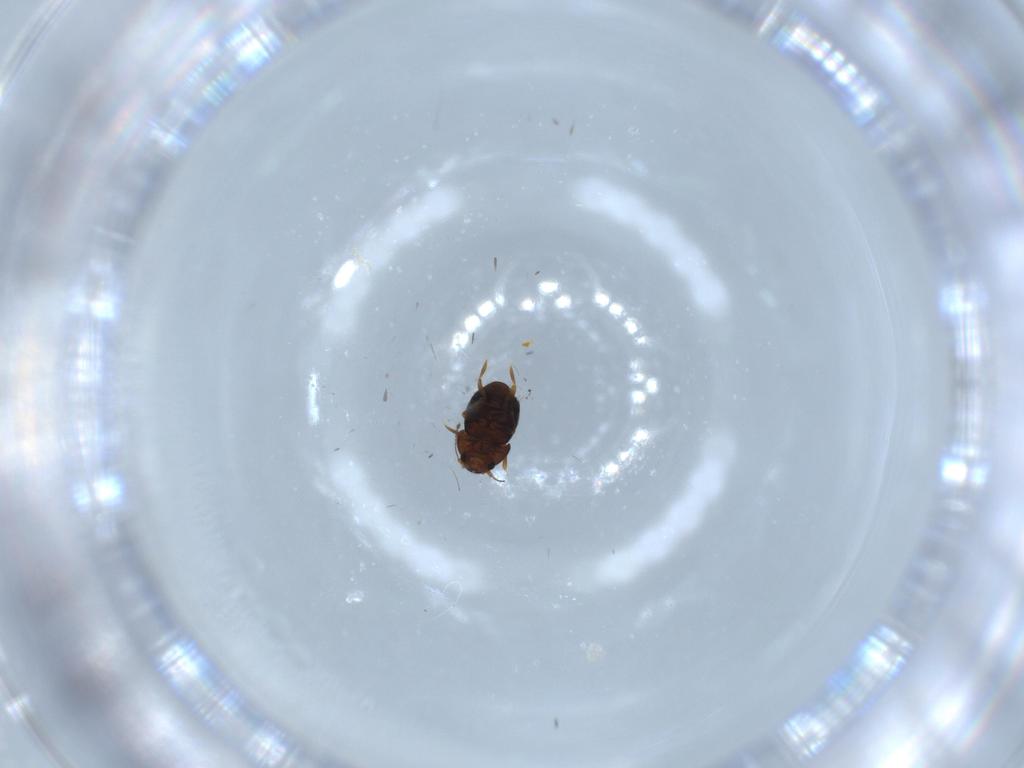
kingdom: Animalia
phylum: Arthropoda
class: Insecta
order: Coleoptera
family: Ptiliidae
